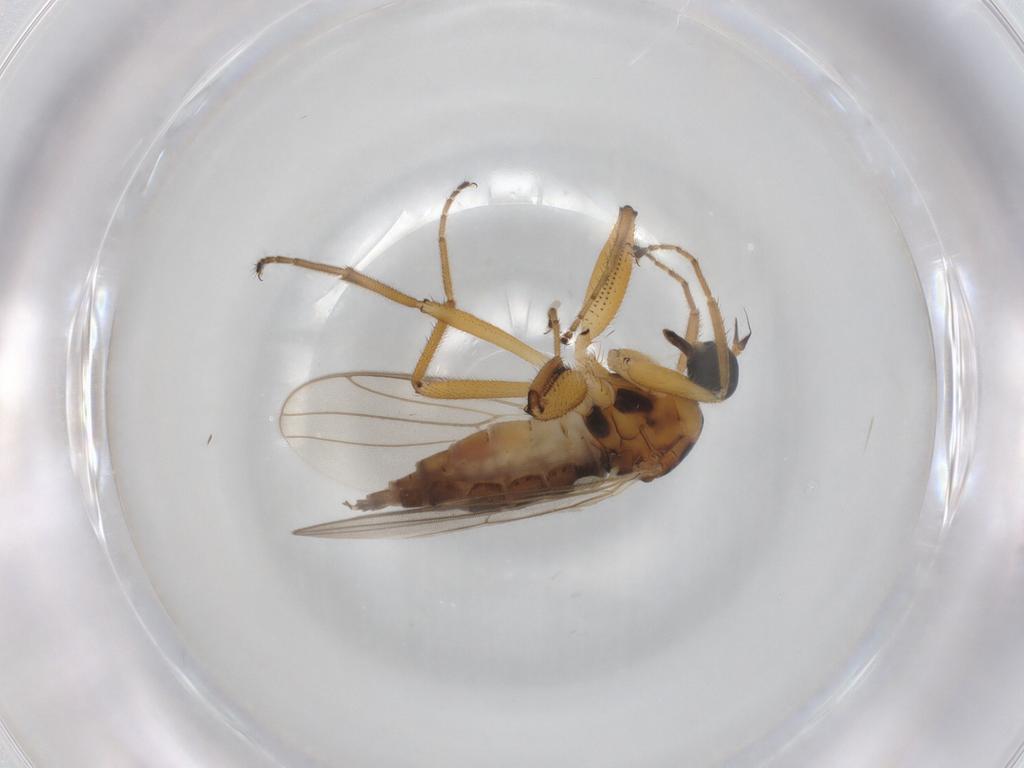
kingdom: Animalia
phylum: Arthropoda
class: Insecta
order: Diptera
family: Hybotidae
